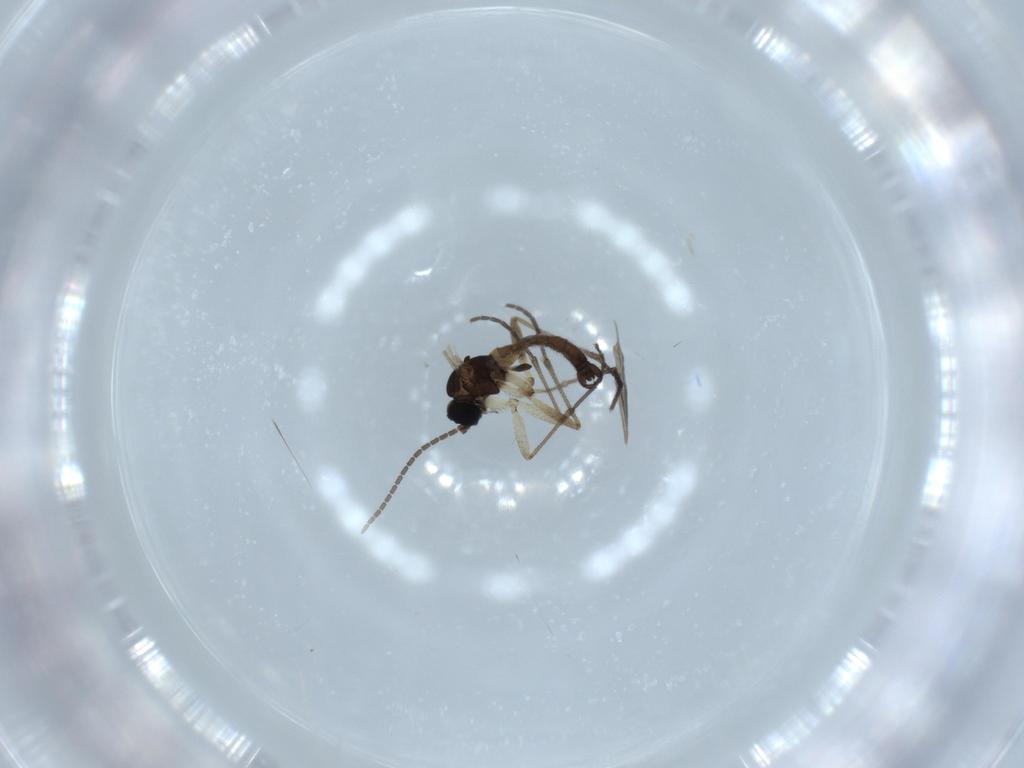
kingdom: Animalia
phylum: Arthropoda
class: Insecta
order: Diptera
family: Sciaridae
